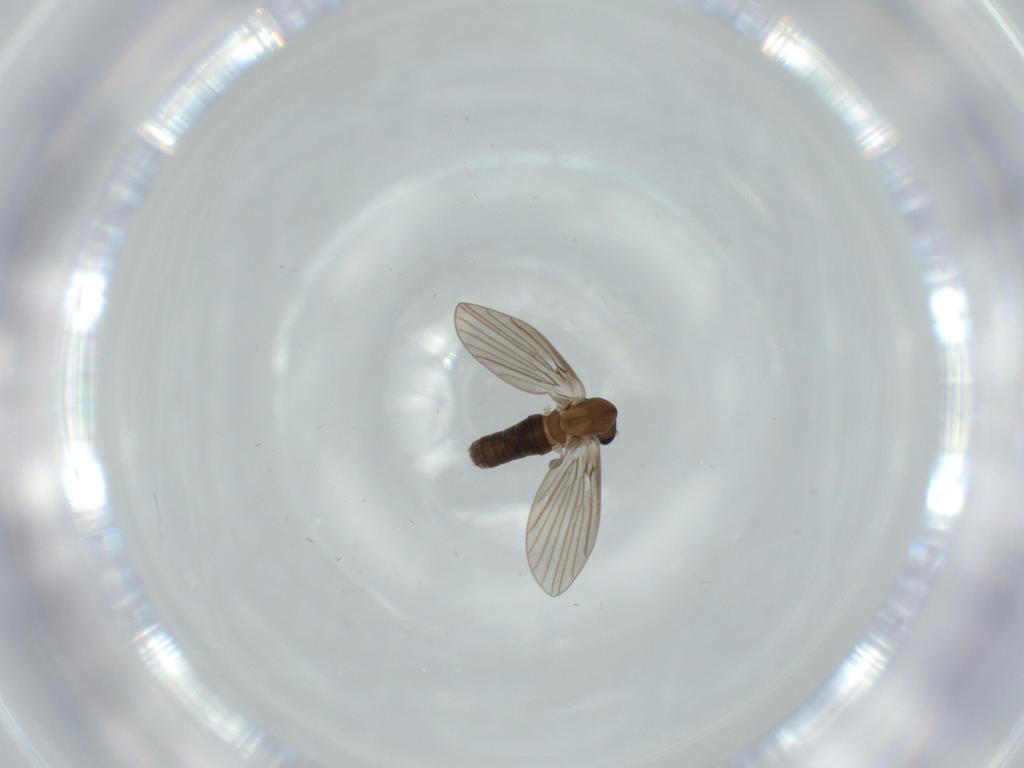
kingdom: Animalia
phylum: Arthropoda
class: Insecta
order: Diptera
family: Psychodidae
